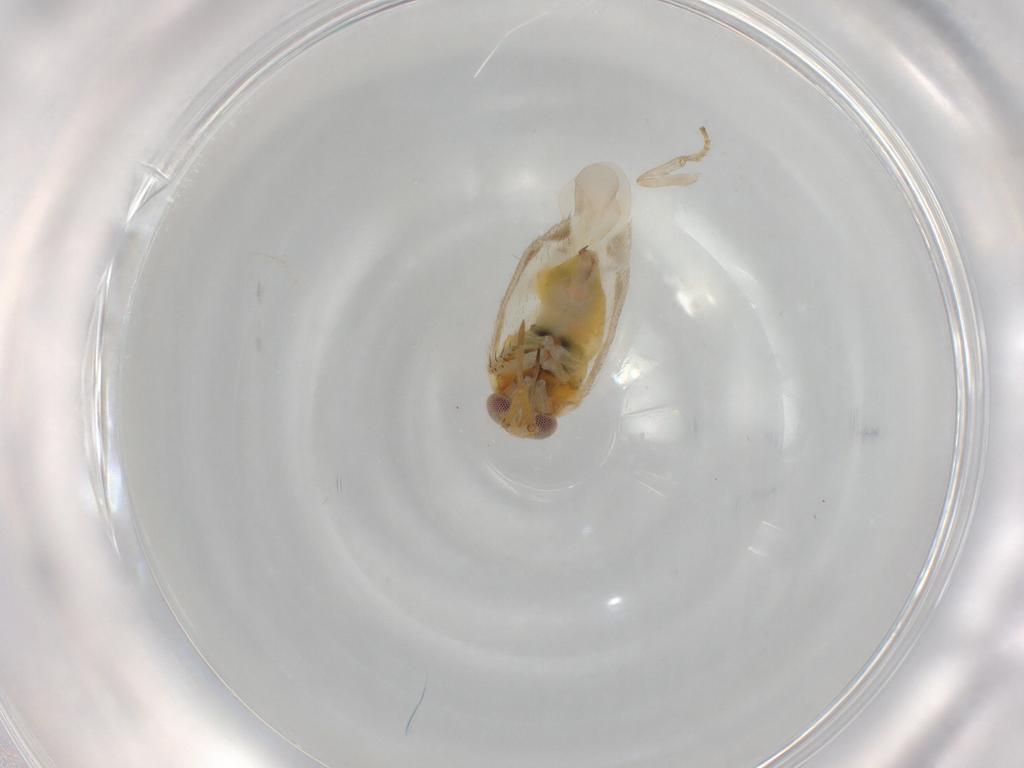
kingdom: Animalia
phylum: Arthropoda
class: Insecta
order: Hemiptera
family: Miridae
